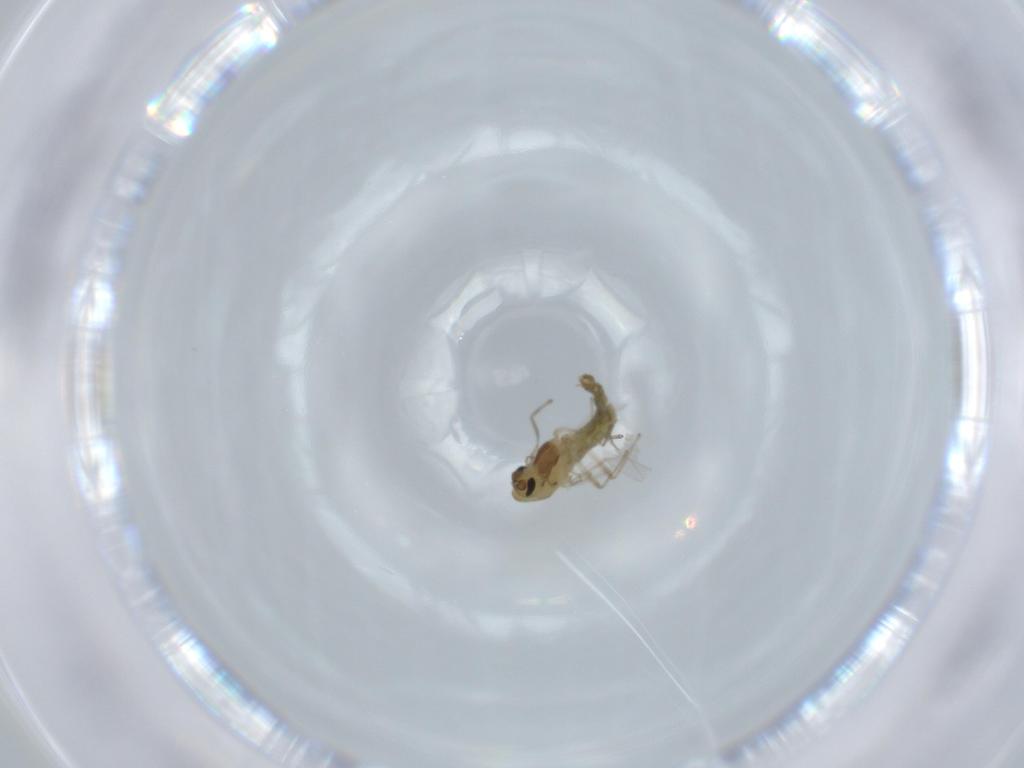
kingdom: Animalia
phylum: Arthropoda
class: Insecta
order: Diptera
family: Chironomidae
